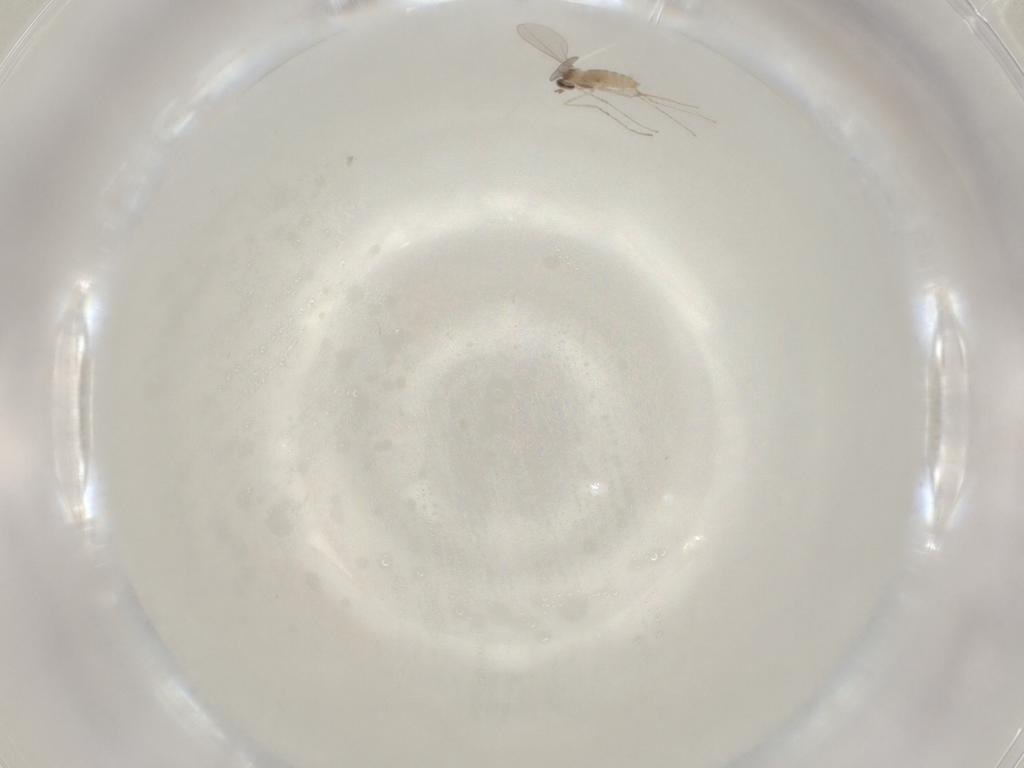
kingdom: Animalia
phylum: Arthropoda
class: Insecta
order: Diptera
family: Cecidomyiidae
